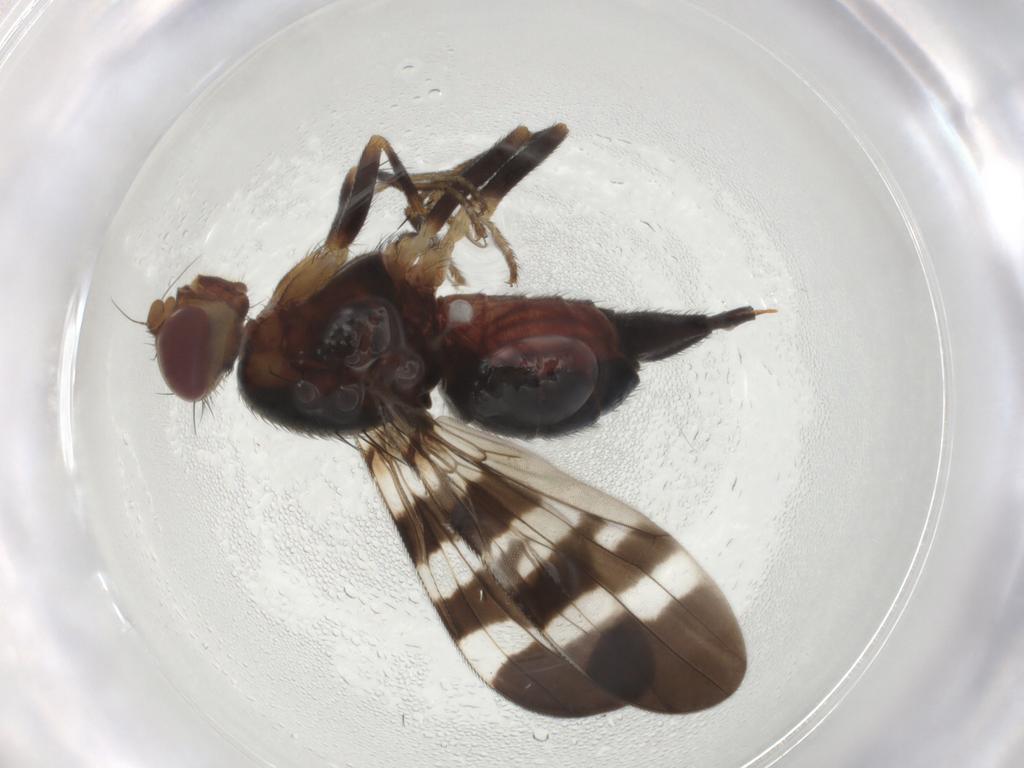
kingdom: Animalia
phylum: Arthropoda
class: Insecta
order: Diptera
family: Tephritidae
